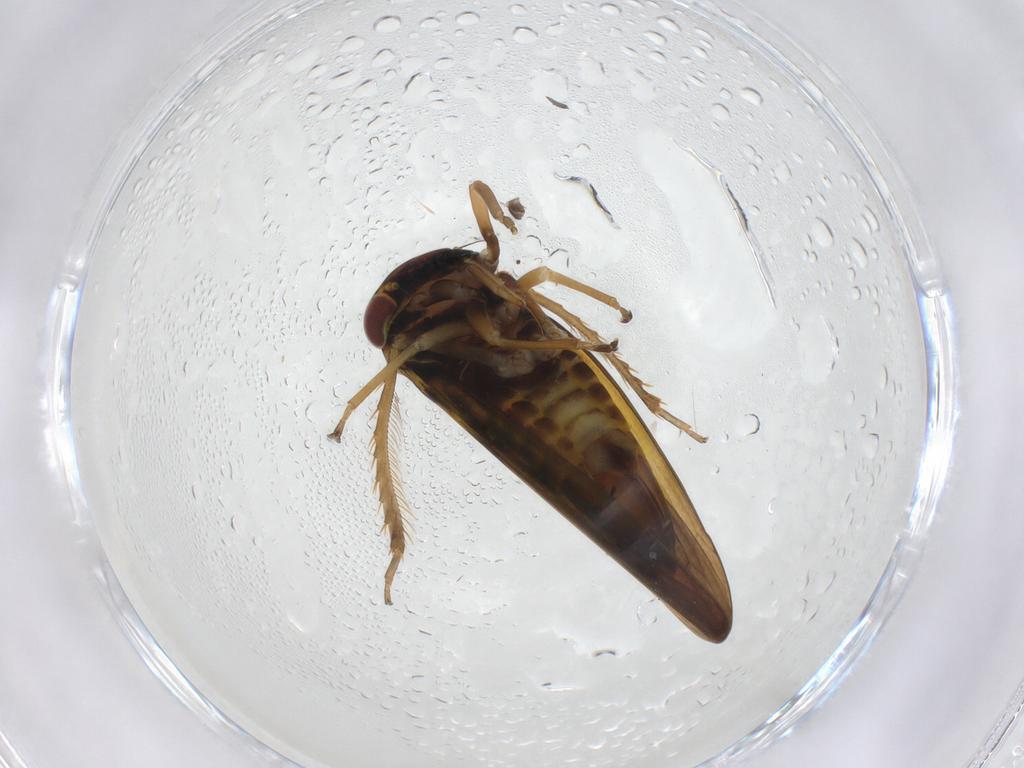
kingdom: Animalia
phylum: Arthropoda
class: Insecta
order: Hemiptera
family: Cicadellidae
